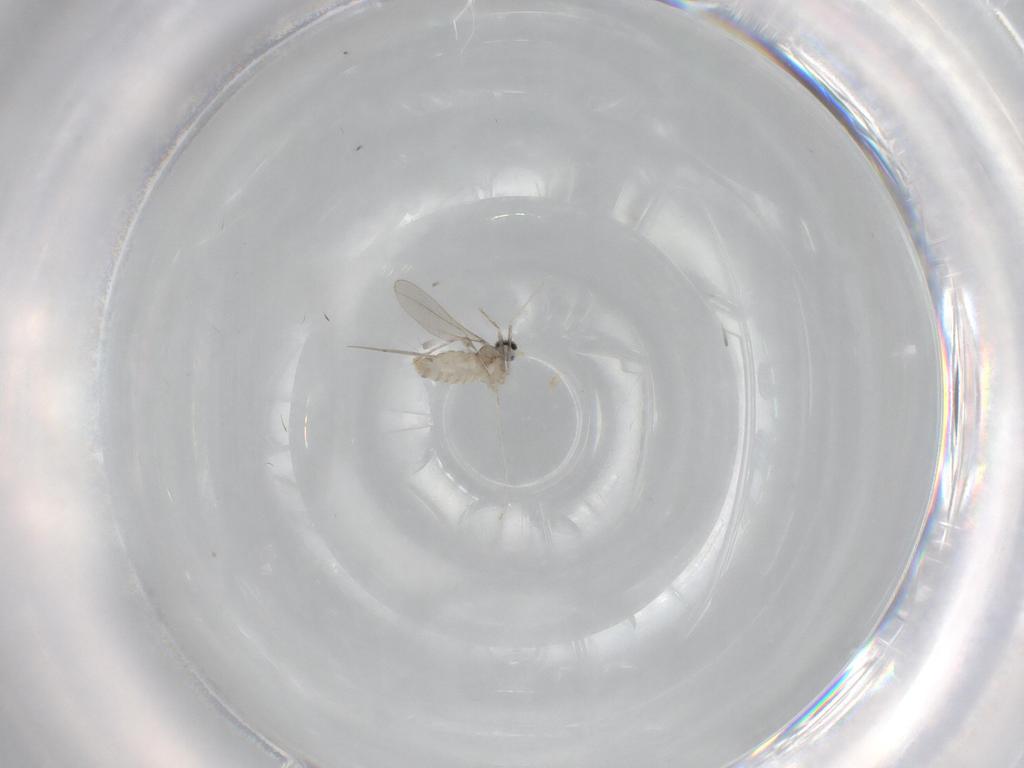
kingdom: Animalia
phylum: Arthropoda
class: Insecta
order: Diptera
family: Cecidomyiidae
